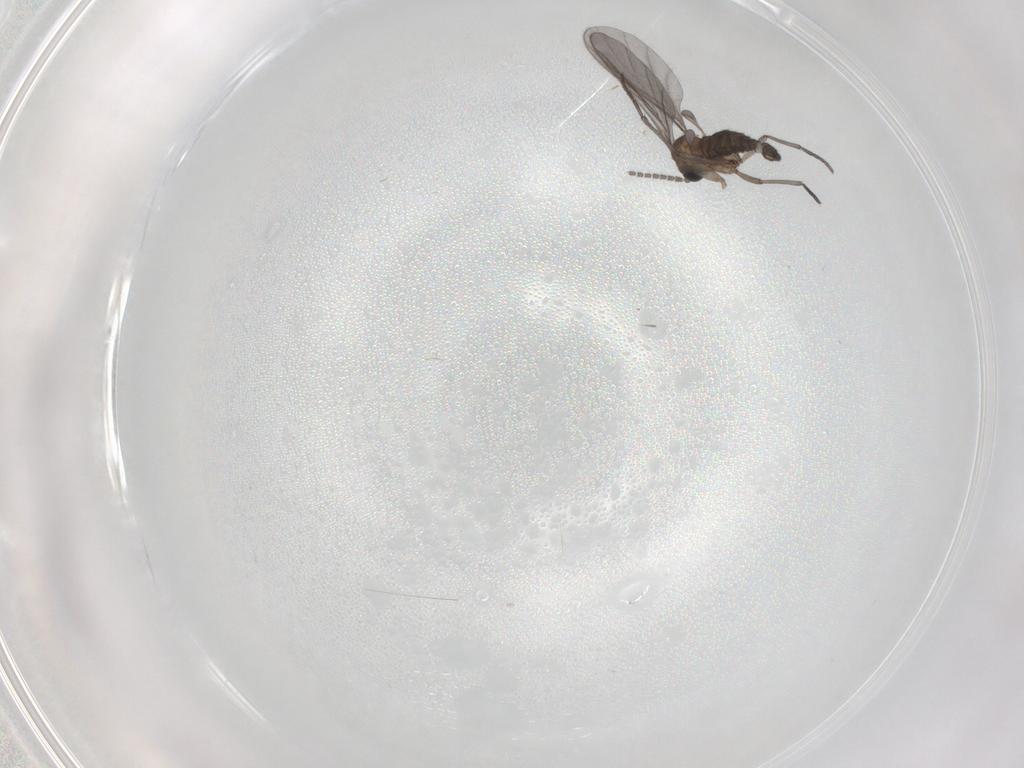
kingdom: Animalia
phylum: Arthropoda
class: Insecta
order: Diptera
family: Sciaridae
